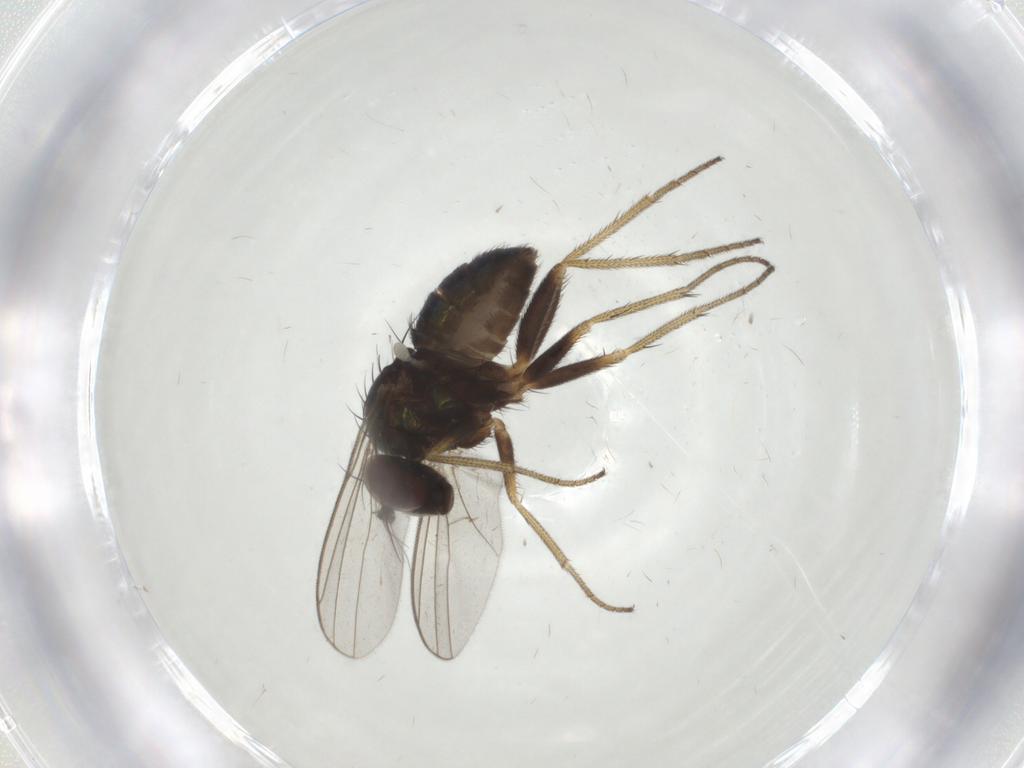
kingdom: Animalia
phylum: Arthropoda
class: Insecta
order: Diptera
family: Dolichopodidae
